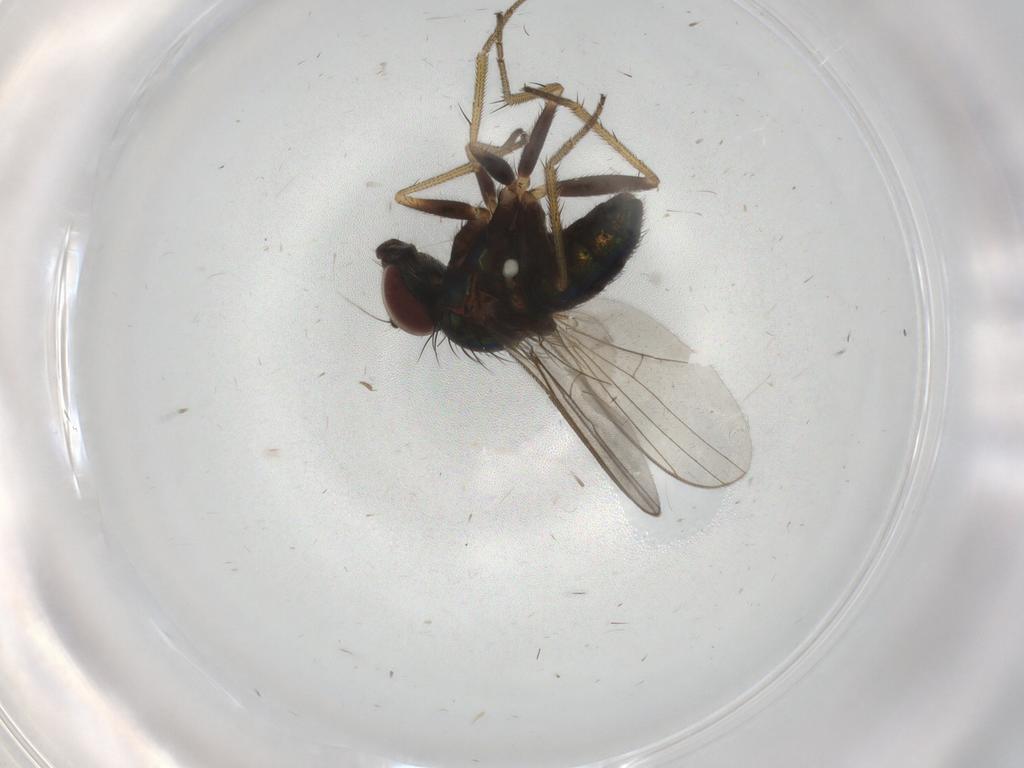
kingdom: Animalia
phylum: Arthropoda
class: Insecta
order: Diptera
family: Dolichopodidae
